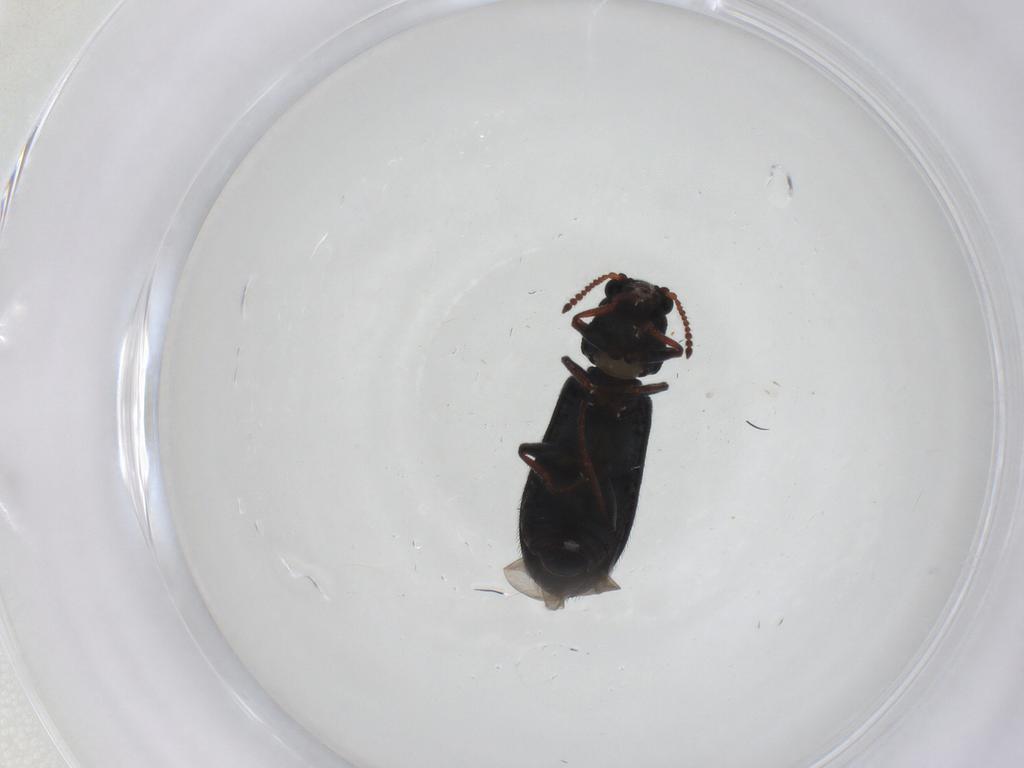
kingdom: Animalia
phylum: Arthropoda
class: Insecta
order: Coleoptera
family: Melyridae
